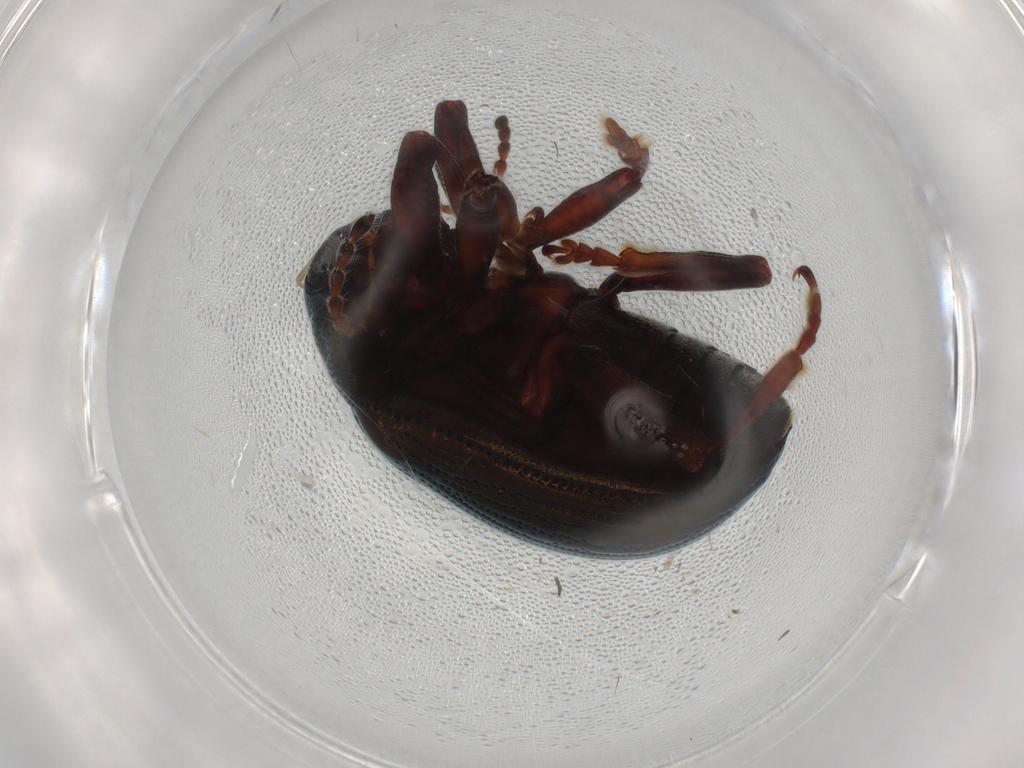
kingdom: Animalia
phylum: Arthropoda
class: Insecta
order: Coleoptera
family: Chrysomelidae
